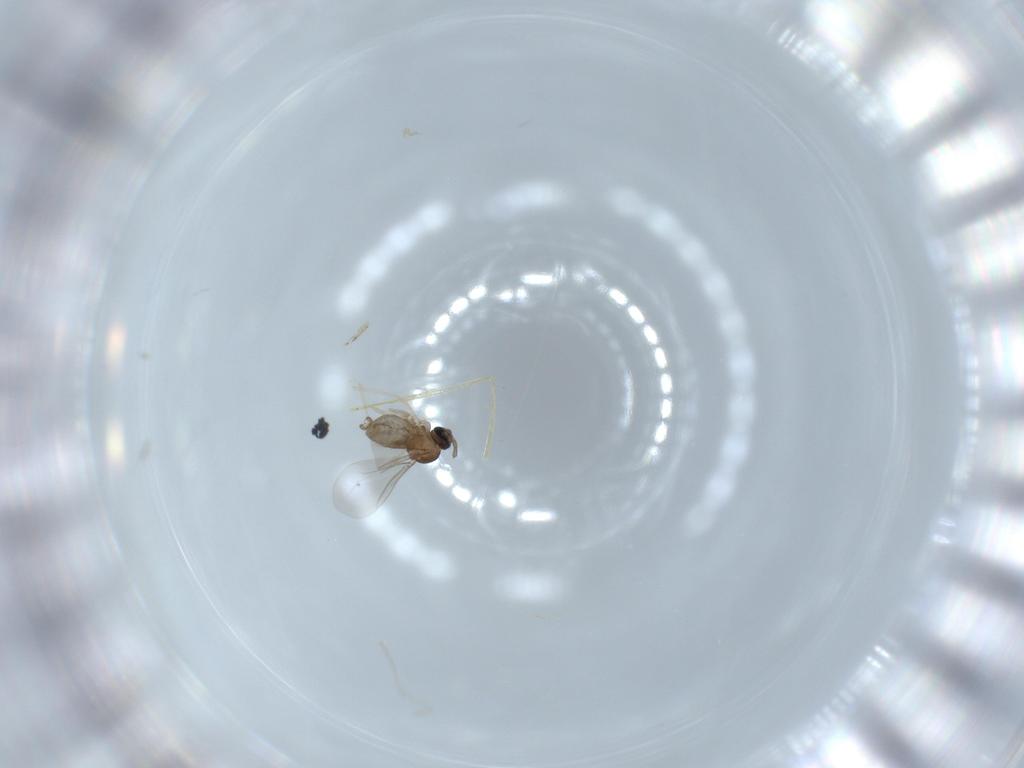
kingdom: Animalia
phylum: Arthropoda
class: Insecta
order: Diptera
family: Cecidomyiidae
